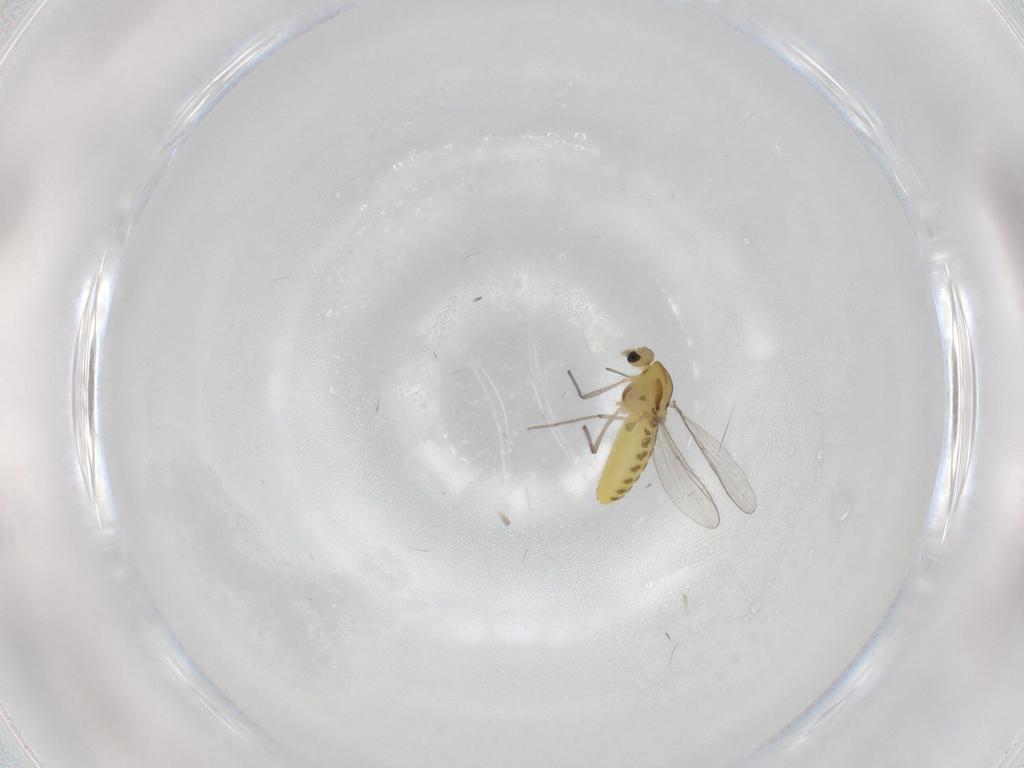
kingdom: Animalia
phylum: Arthropoda
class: Insecta
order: Diptera
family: Chironomidae
